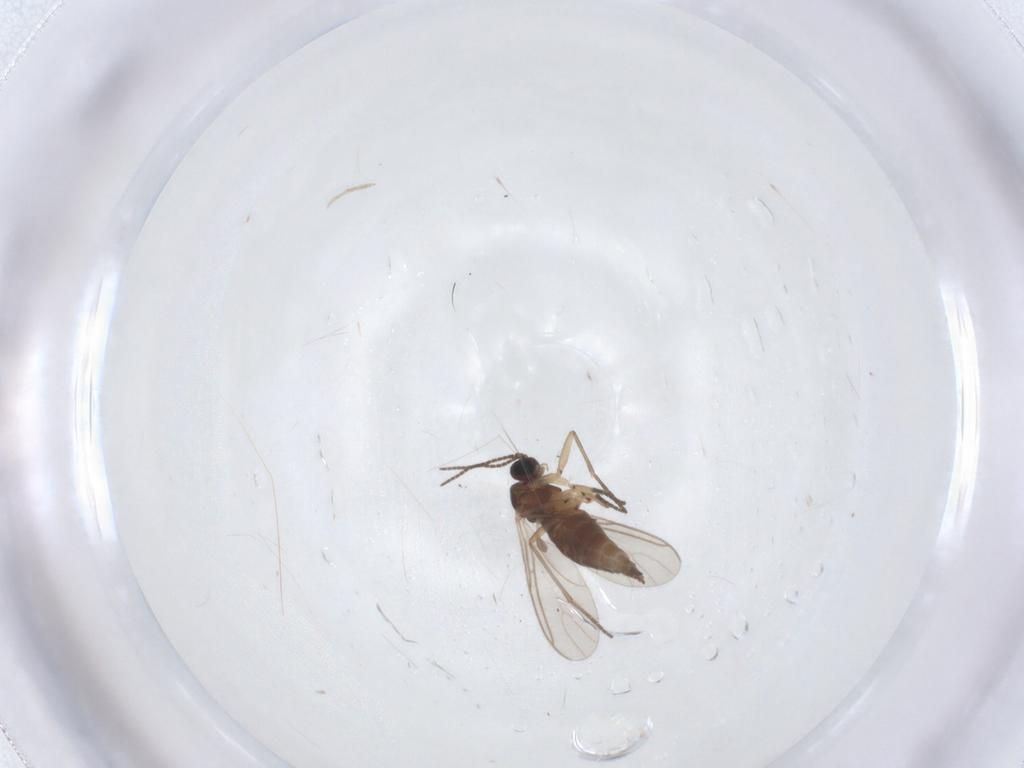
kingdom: Animalia
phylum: Arthropoda
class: Insecta
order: Diptera
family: Sciaridae
